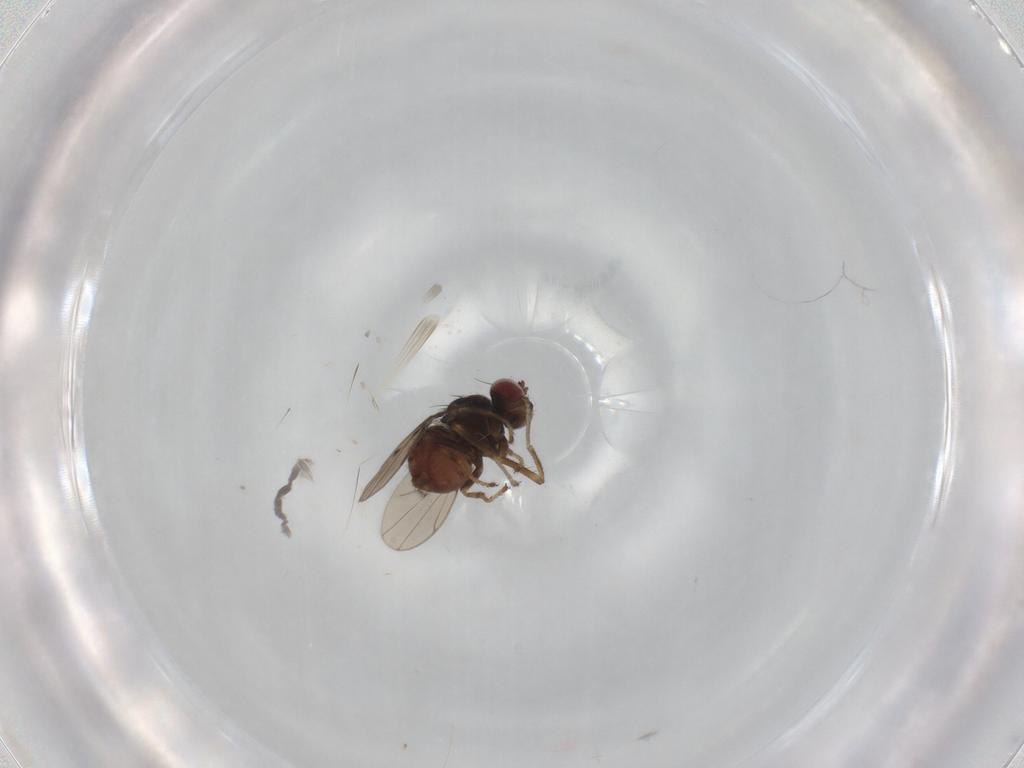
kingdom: Animalia
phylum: Arthropoda
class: Insecta
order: Diptera
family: Ephydridae
